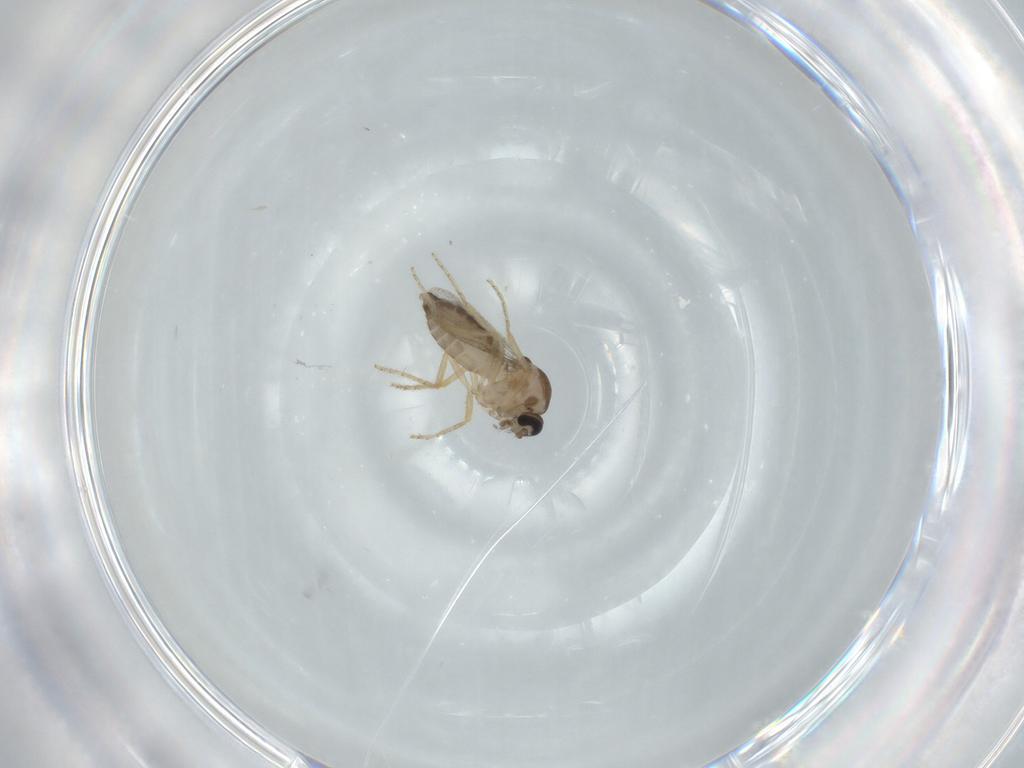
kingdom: Animalia
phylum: Arthropoda
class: Insecta
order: Diptera
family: Ceratopogonidae
